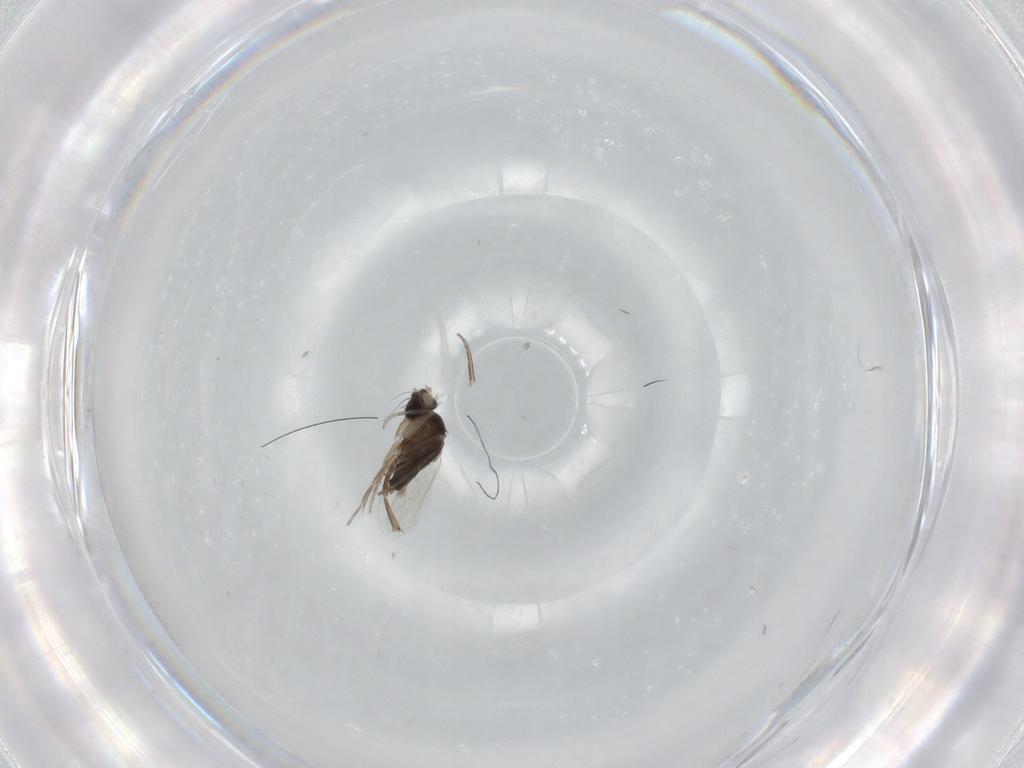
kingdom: Animalia
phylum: Arthropoda
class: Insecta
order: Diptera
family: Phoridae
